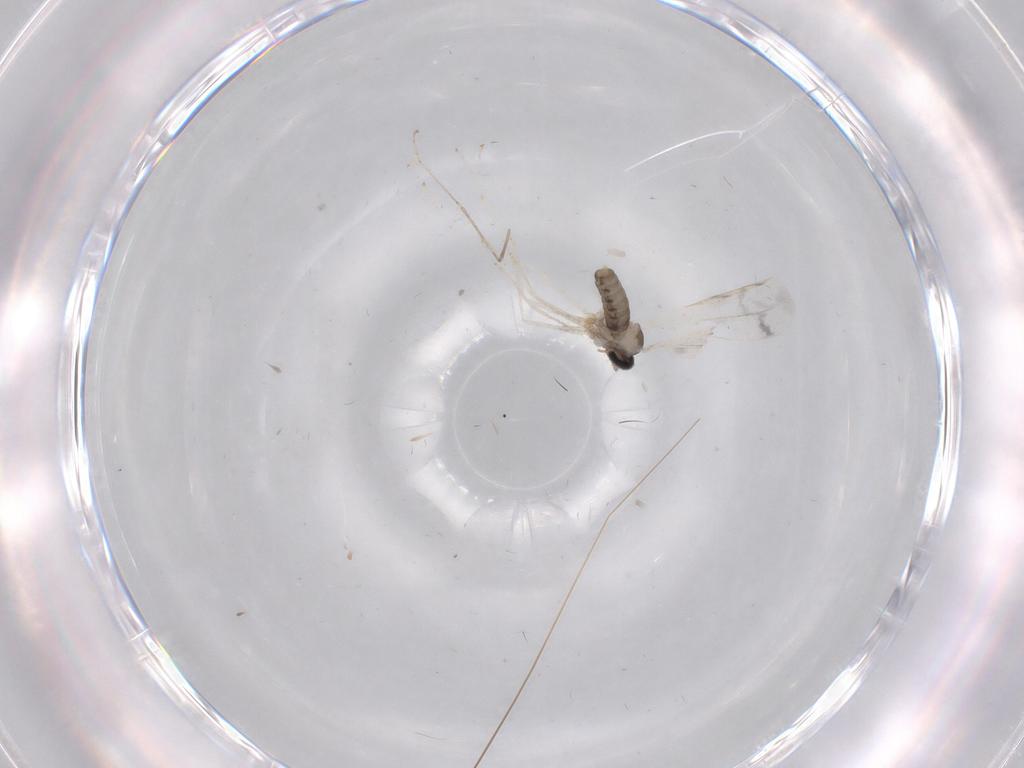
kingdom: Animalia
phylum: Arthropoda
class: Insecta
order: Diptera
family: Cecidomyiidae
